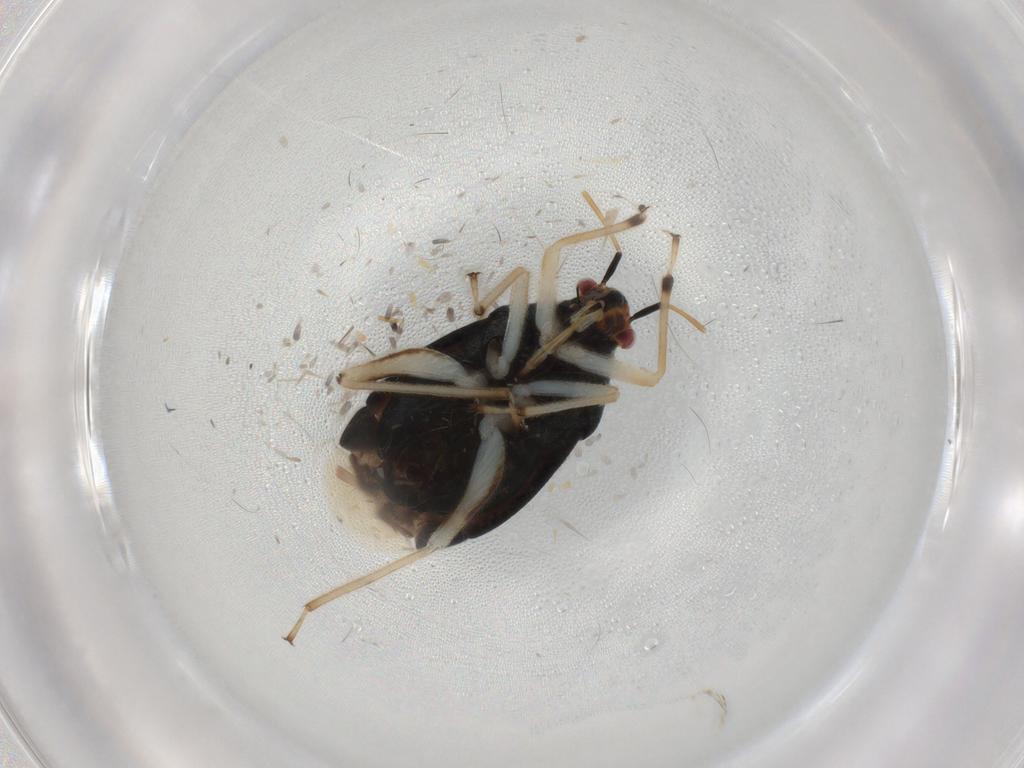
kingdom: Animalia
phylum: Arthropoda
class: Insecta
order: Hemiptera
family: Miridae
